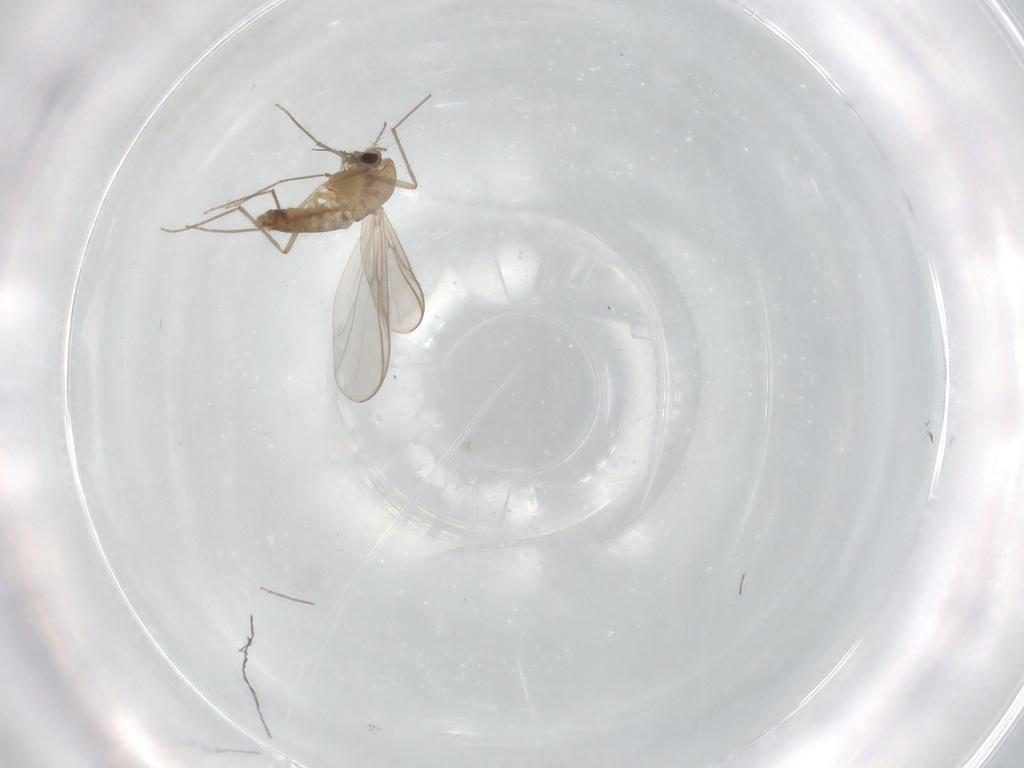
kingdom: Animalia
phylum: Arthropoda
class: Insecta
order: Diptera
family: Chironomidae
